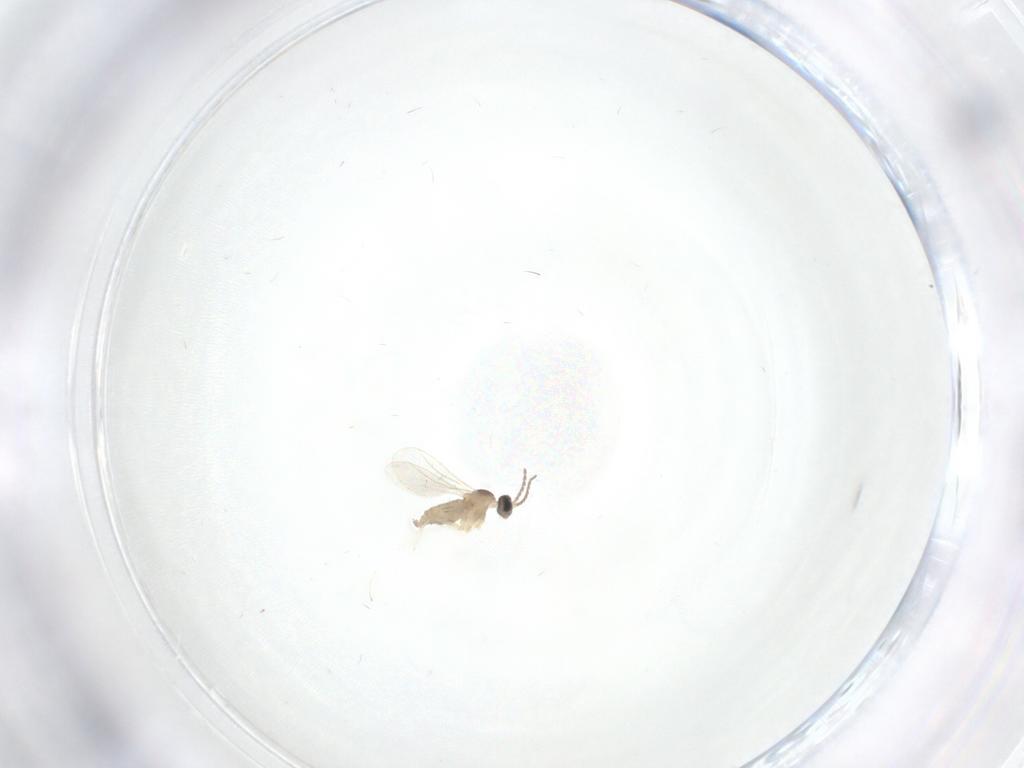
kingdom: Animalia
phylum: Arthropoda
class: Insecta
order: Diptera
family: Cecidomyiidae
